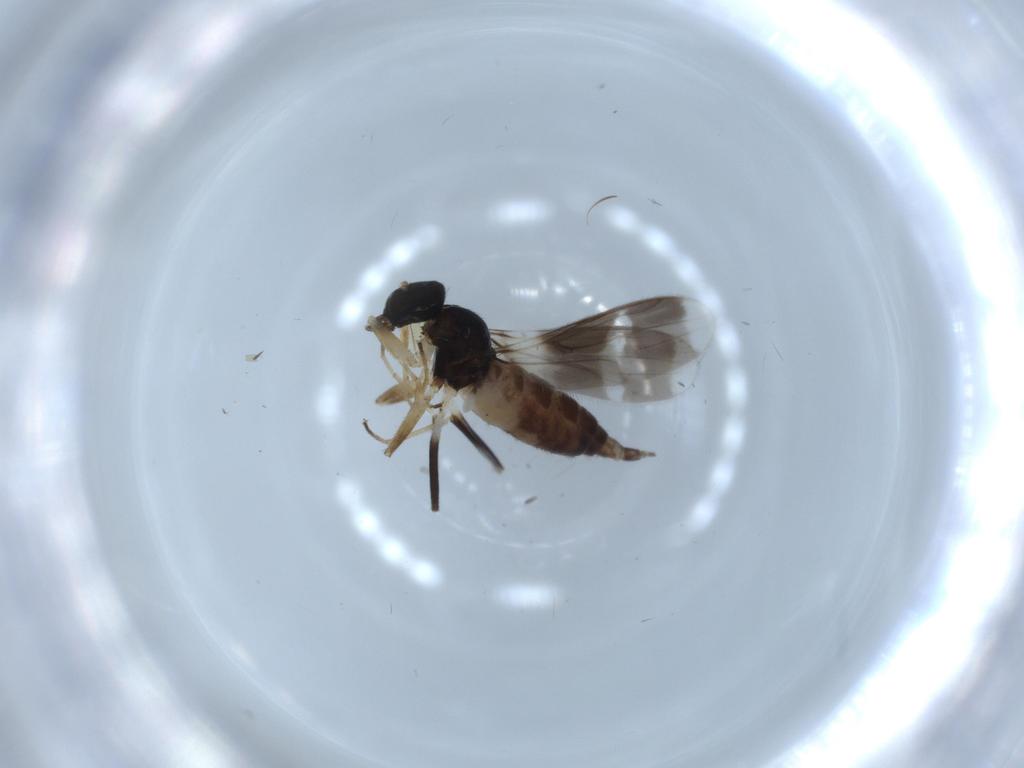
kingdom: Animalia
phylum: Arthropoda
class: Insecta
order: Diptera
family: Hybotidae
